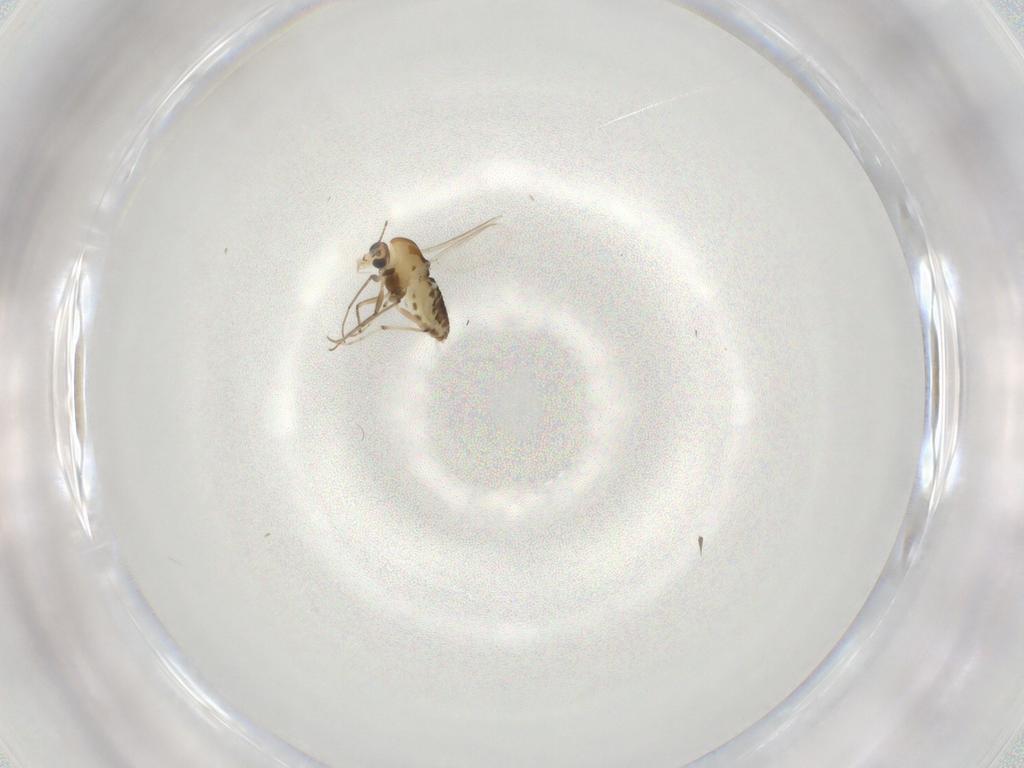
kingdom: Animalia
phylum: Arthropoda
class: Insecta
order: Diptera
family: Chironomidae
